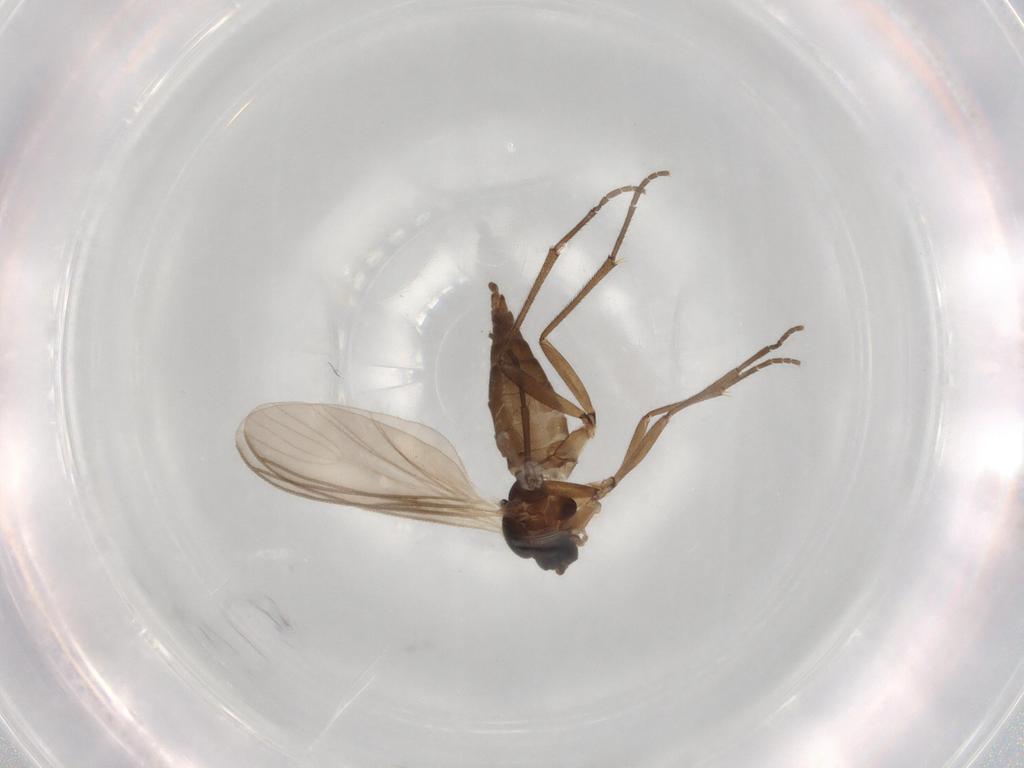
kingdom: Animalia
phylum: Arthropoda
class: Insecta
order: Diptera
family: Sciaridae
